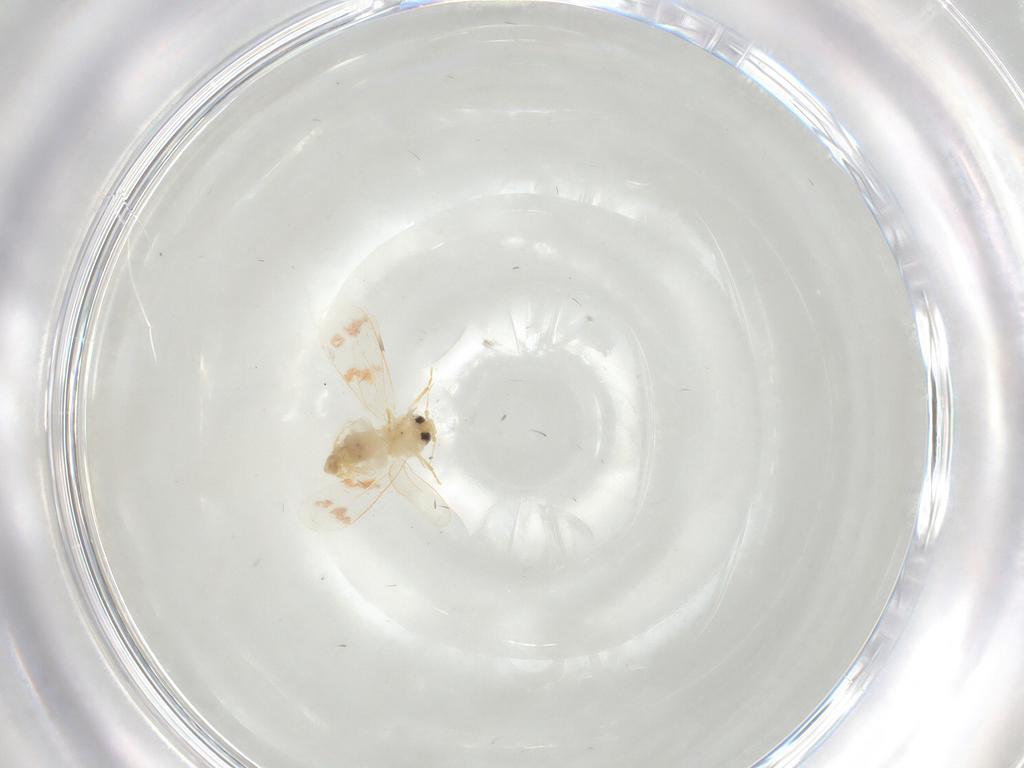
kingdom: Animalia
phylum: Arthropoda
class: Insecta
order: Hemiptera
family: Aleyrodidae
